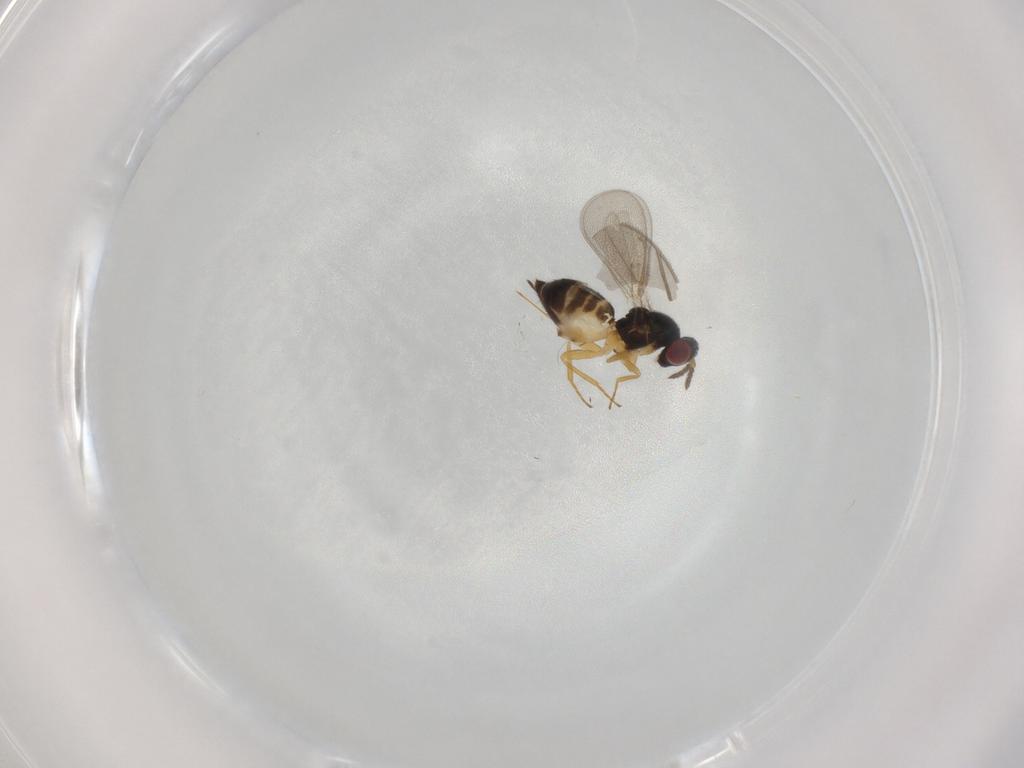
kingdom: Animalia
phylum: Arthropoda
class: Insecta
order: Hymenoptera
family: Eulophidae
